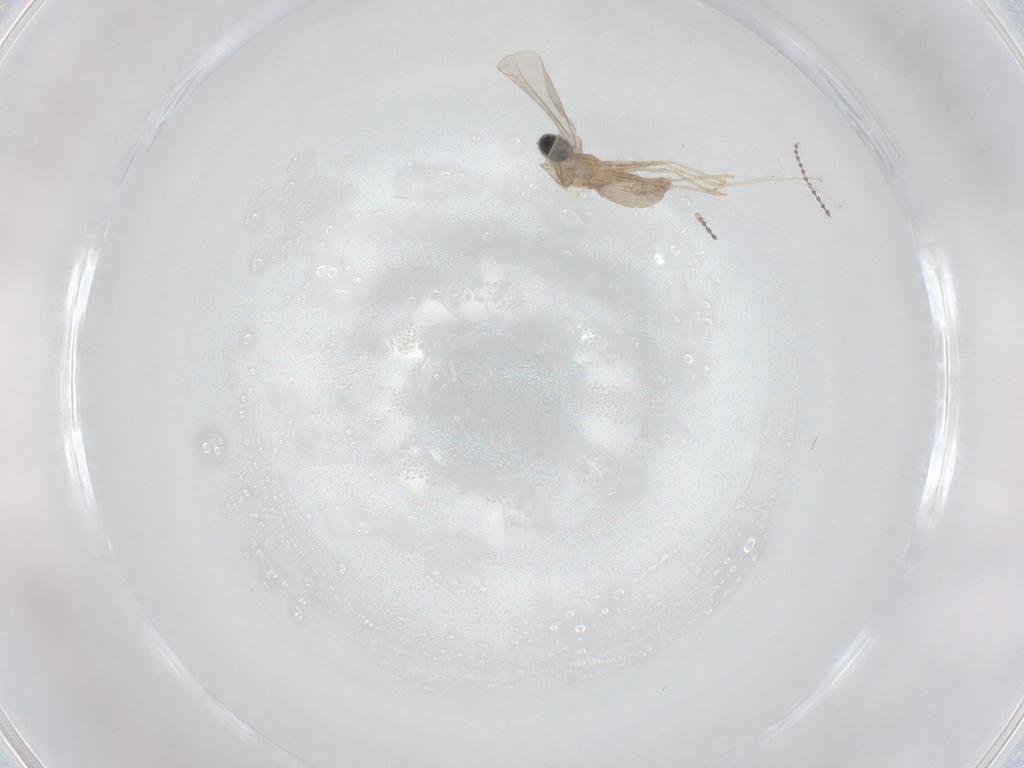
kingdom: Animalia
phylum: Arthropoda
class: Insecta
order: Diptera
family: Cecidomyiidae
